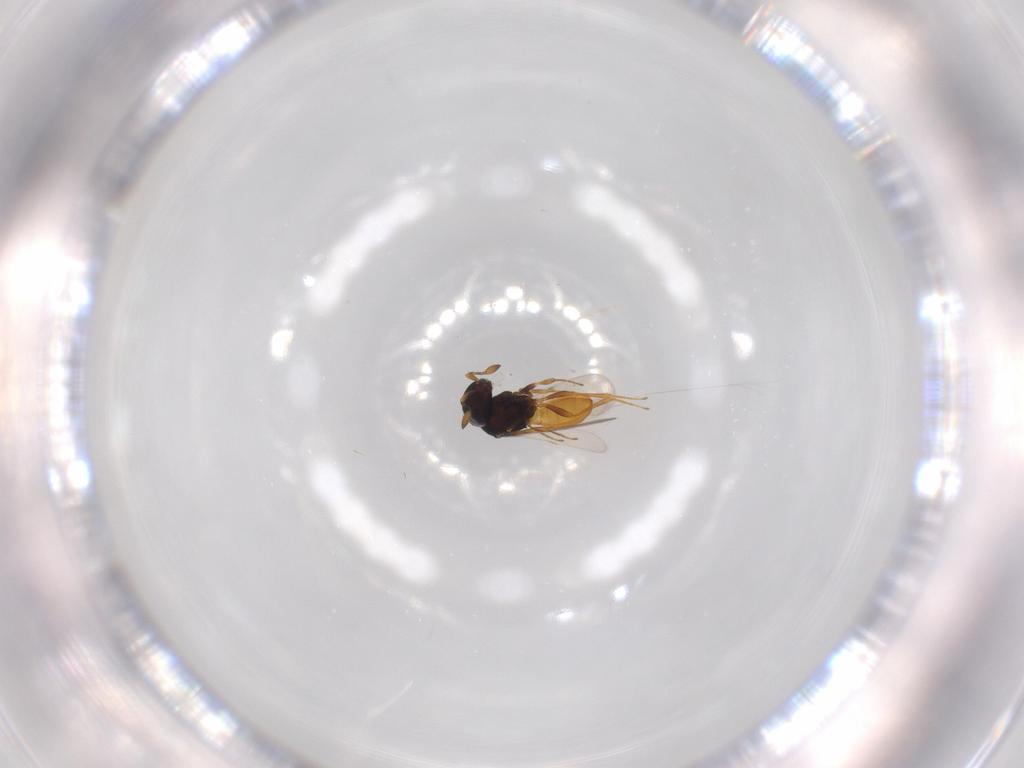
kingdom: Animalia
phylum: Arthropoda
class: Insecta
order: Hymenoptera
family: Scelionidae
